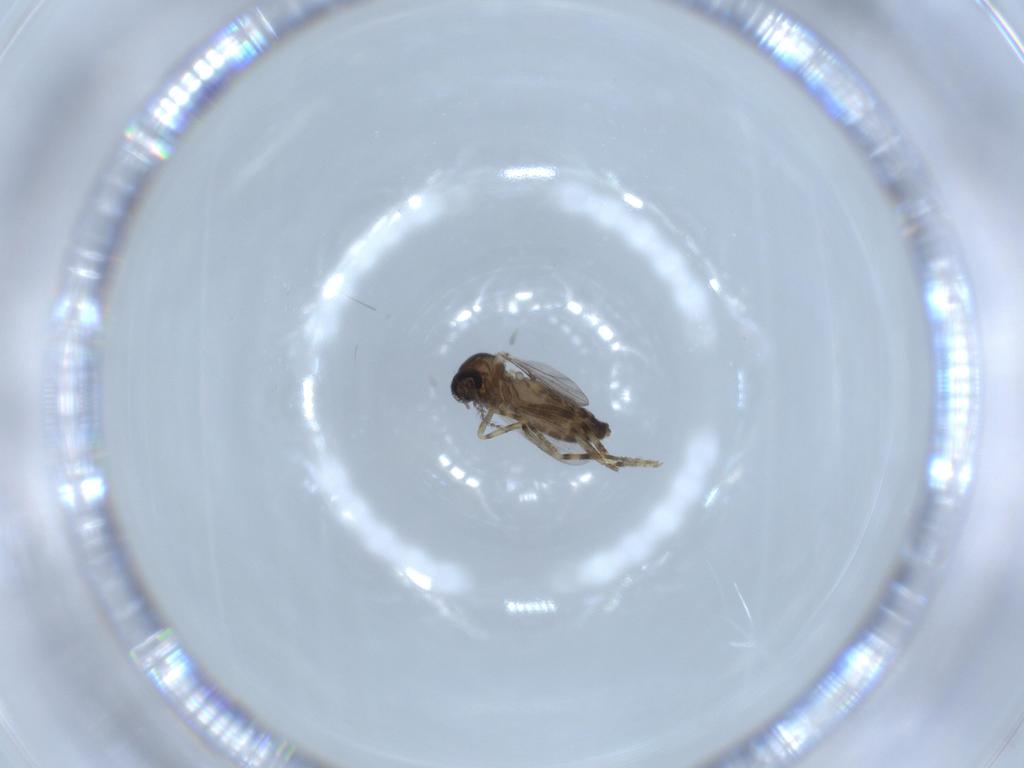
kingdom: Animalia
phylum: Arthropoda
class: Insecta
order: Diptera
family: Ceratopogonidae
